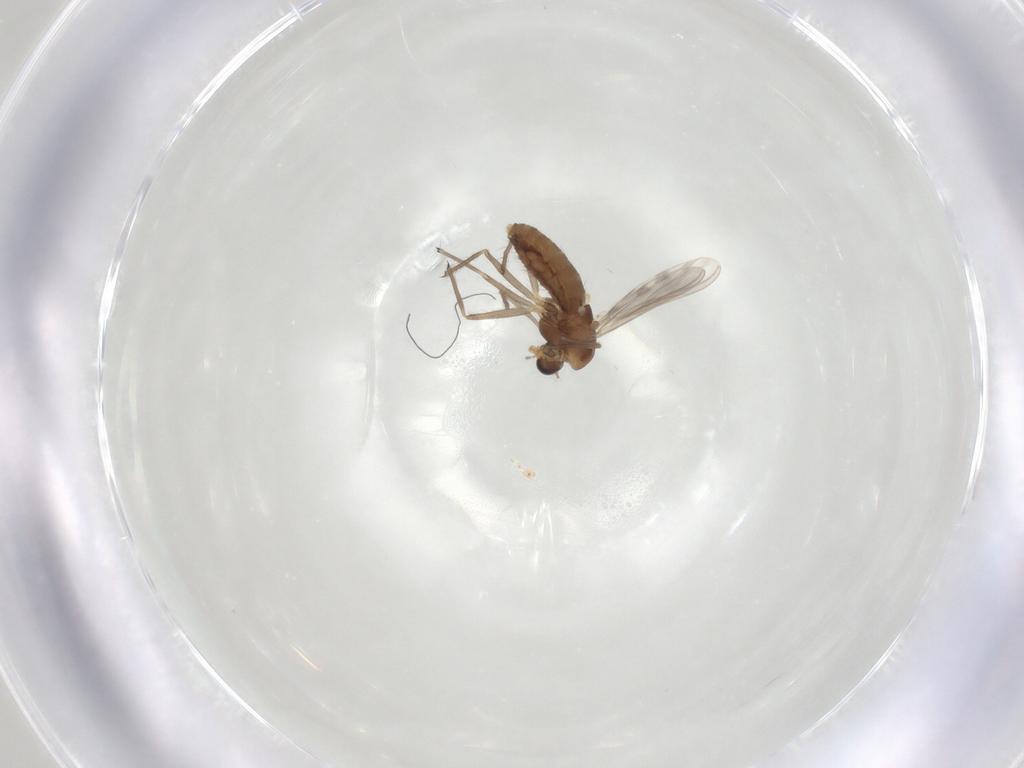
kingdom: Animalia
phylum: Arthropoda
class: Insecta
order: Diptera
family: Chironomidae
